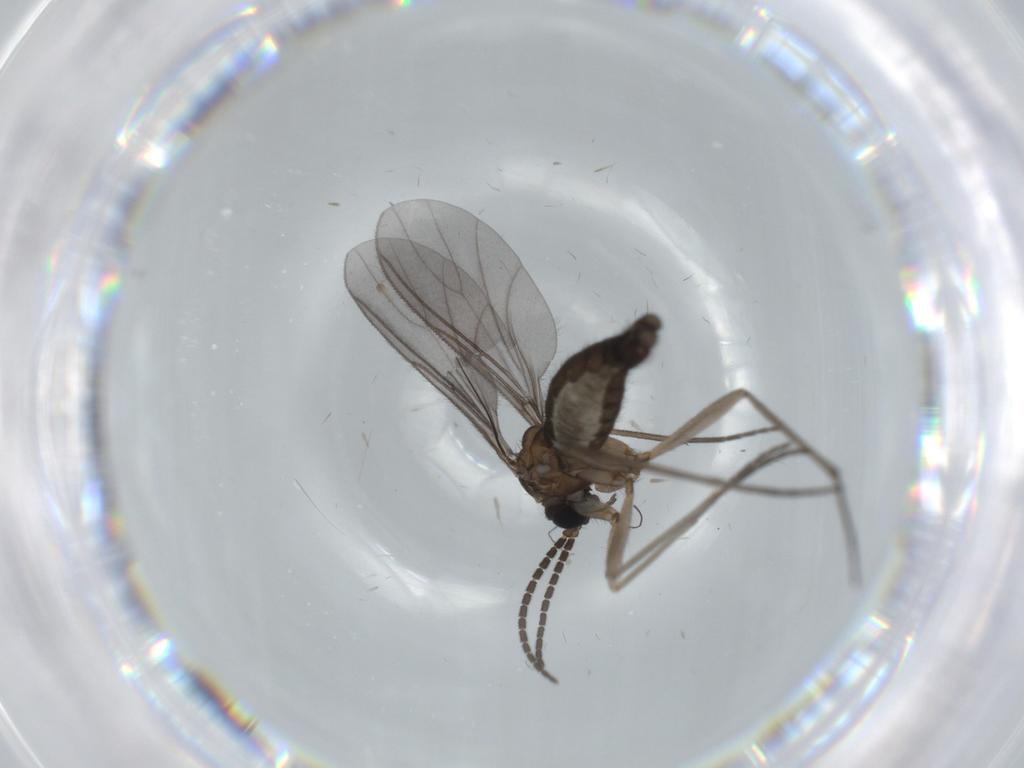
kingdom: Animalia
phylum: Arthropoda
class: Insecta
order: Diptera
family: Sciaridae
